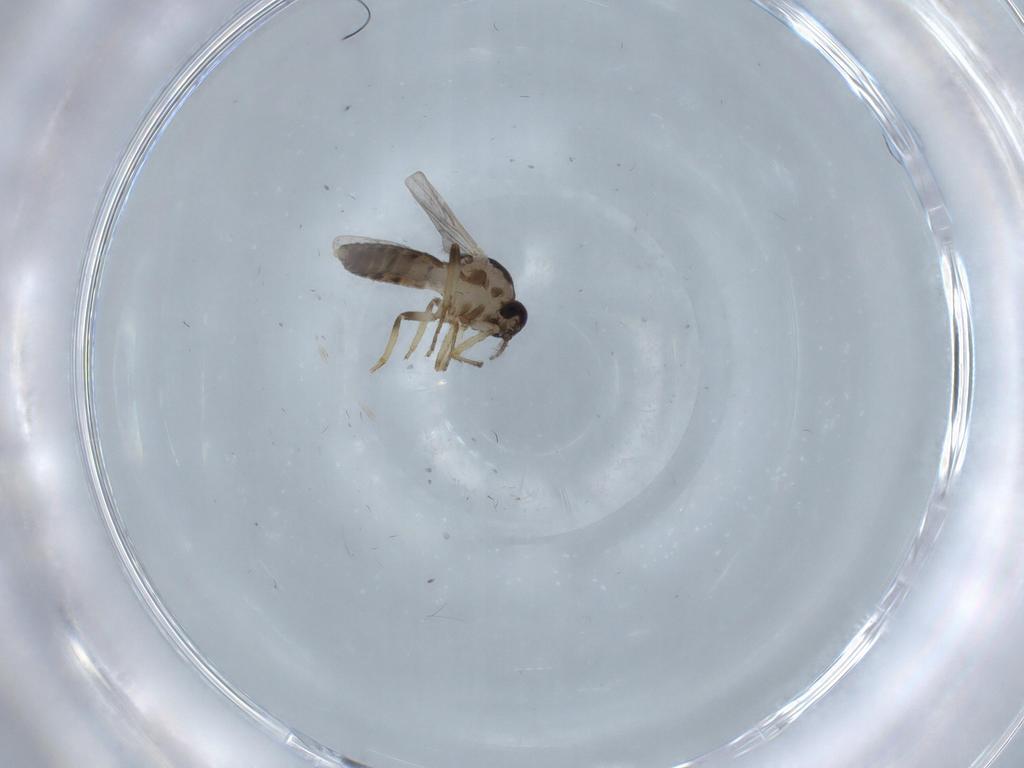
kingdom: Animalia
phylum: Arthropoda
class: Insecta
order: Diptera
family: Ceratopogonidae
